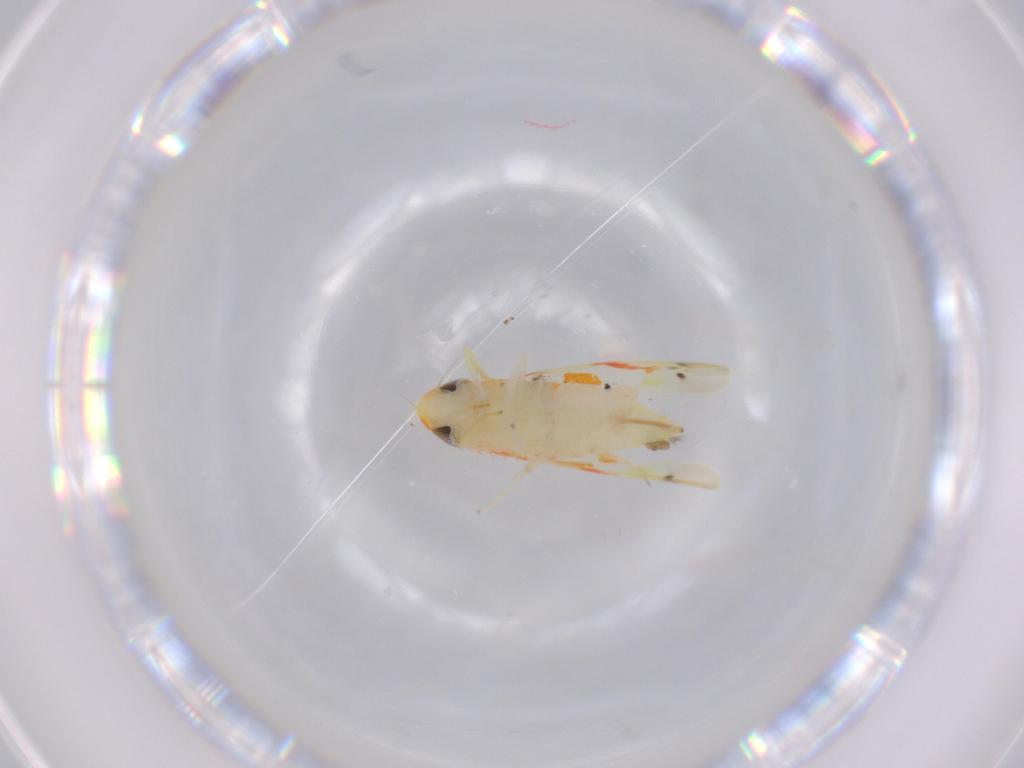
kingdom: Animalia
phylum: Arthropoda
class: Insecta
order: Hemiptera
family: Cicadellidae
